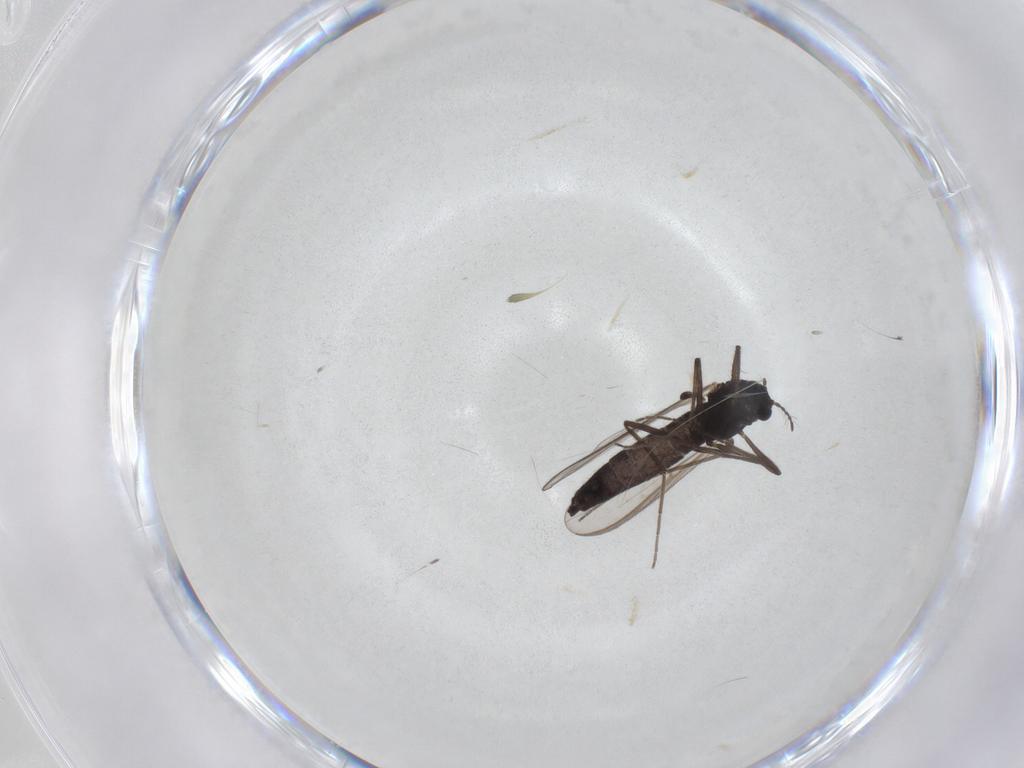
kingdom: Animalia
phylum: Arthropoda
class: Insecta
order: Diptera
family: Chironomidae
